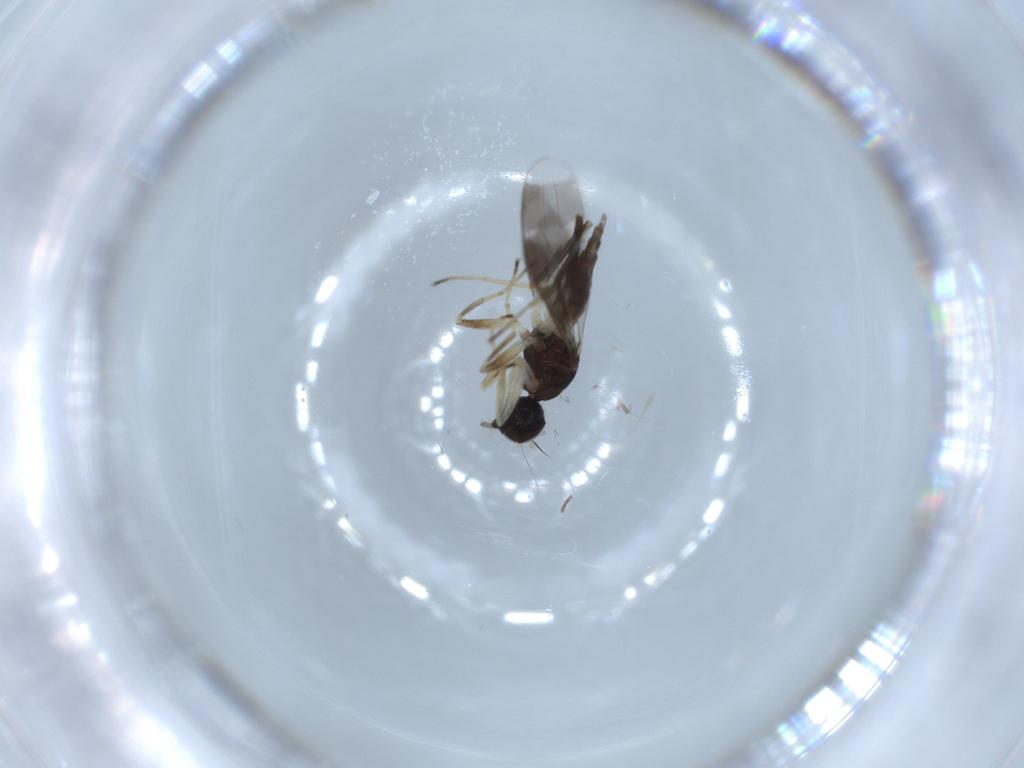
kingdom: Animalia
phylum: Arthropoda
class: Insecta
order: Diptera
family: Hybotidae
